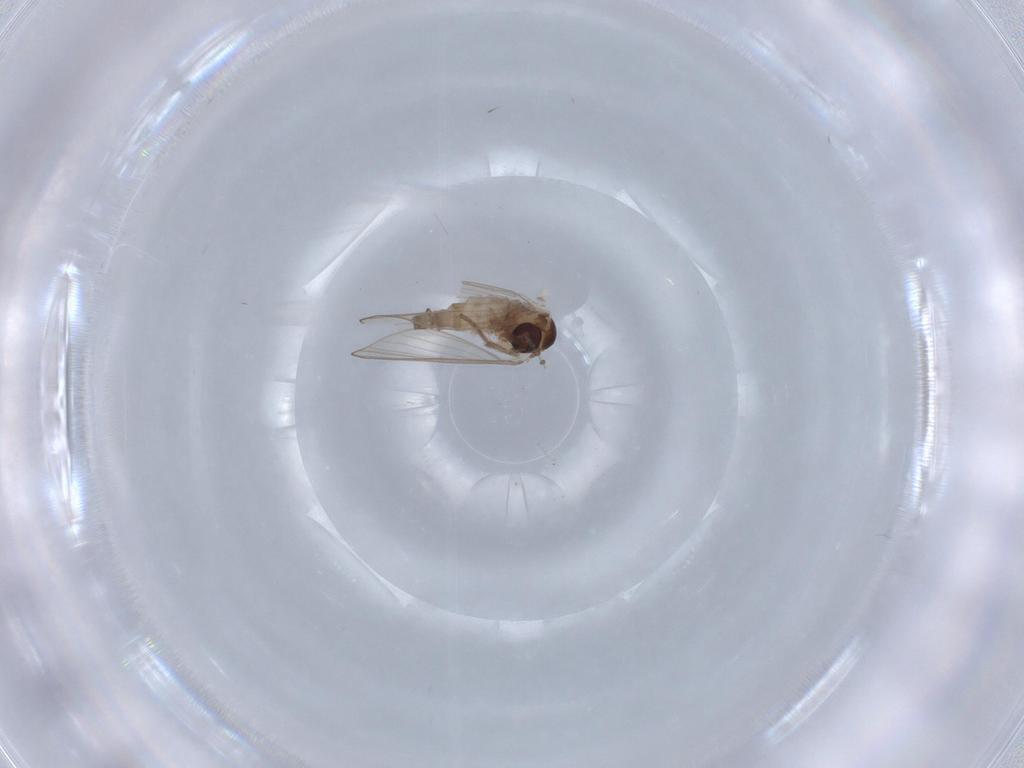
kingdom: Animalia
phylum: Arthropoda
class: Insecta
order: Diptera
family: Psychodidae
